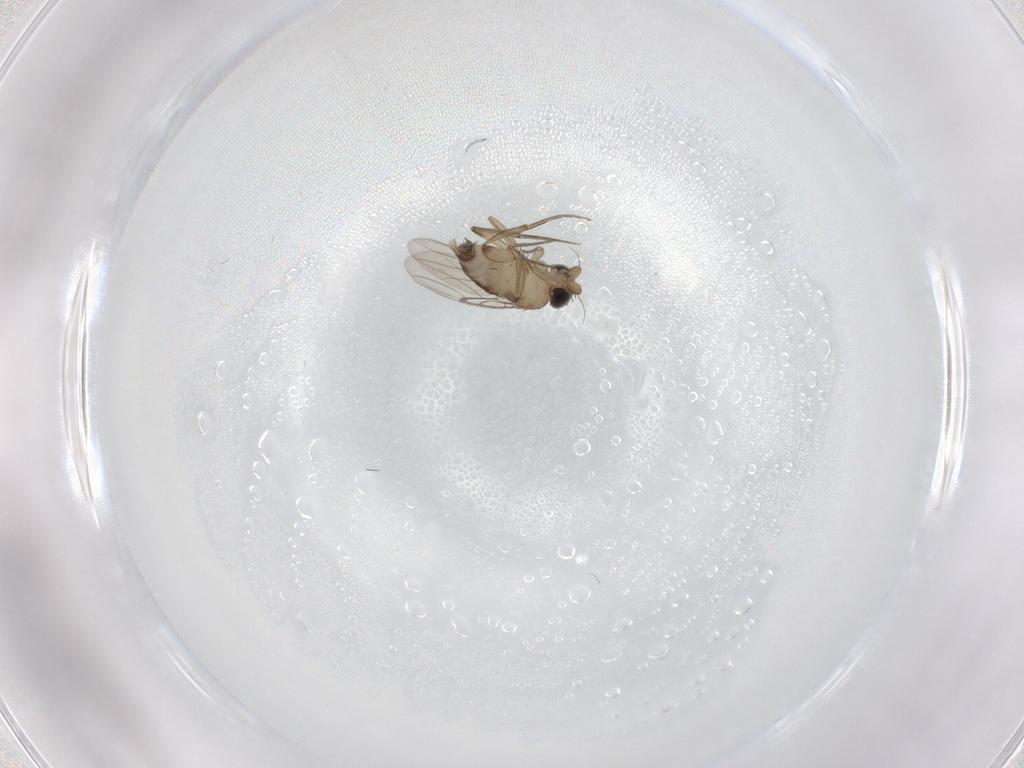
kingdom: Animalia
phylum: Arthropoda
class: Insecta
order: Diptera
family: Phoridae
